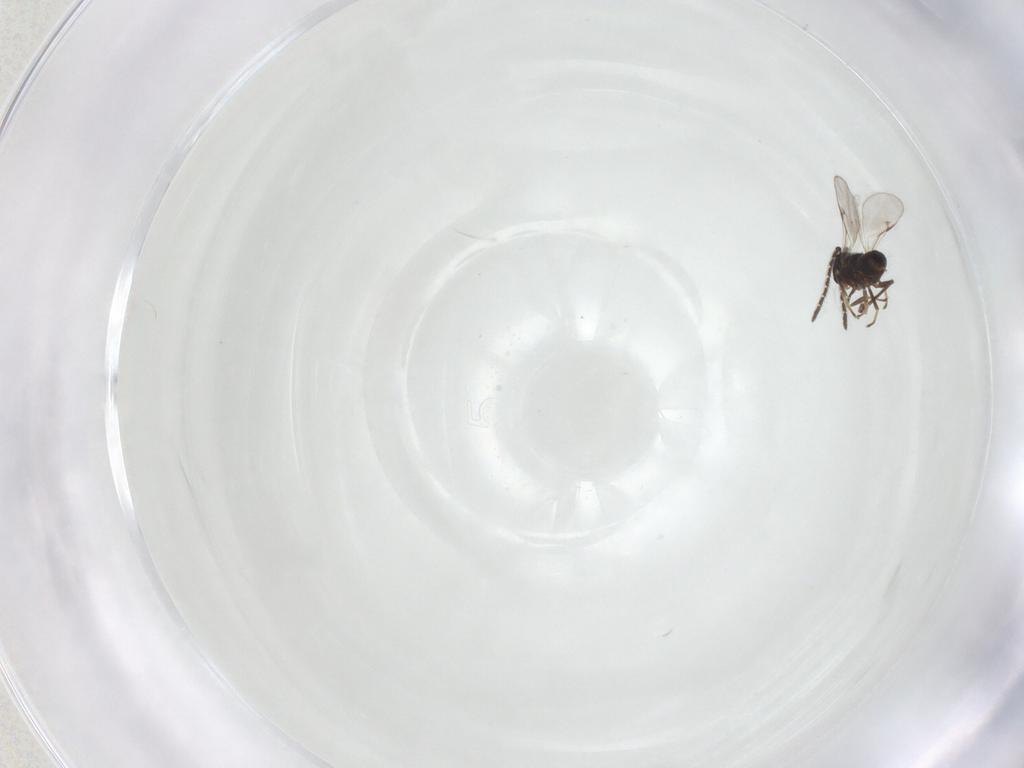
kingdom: Animalia
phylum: Arthropoda
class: Insecta
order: Hymenoptera
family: Encyrtidae
